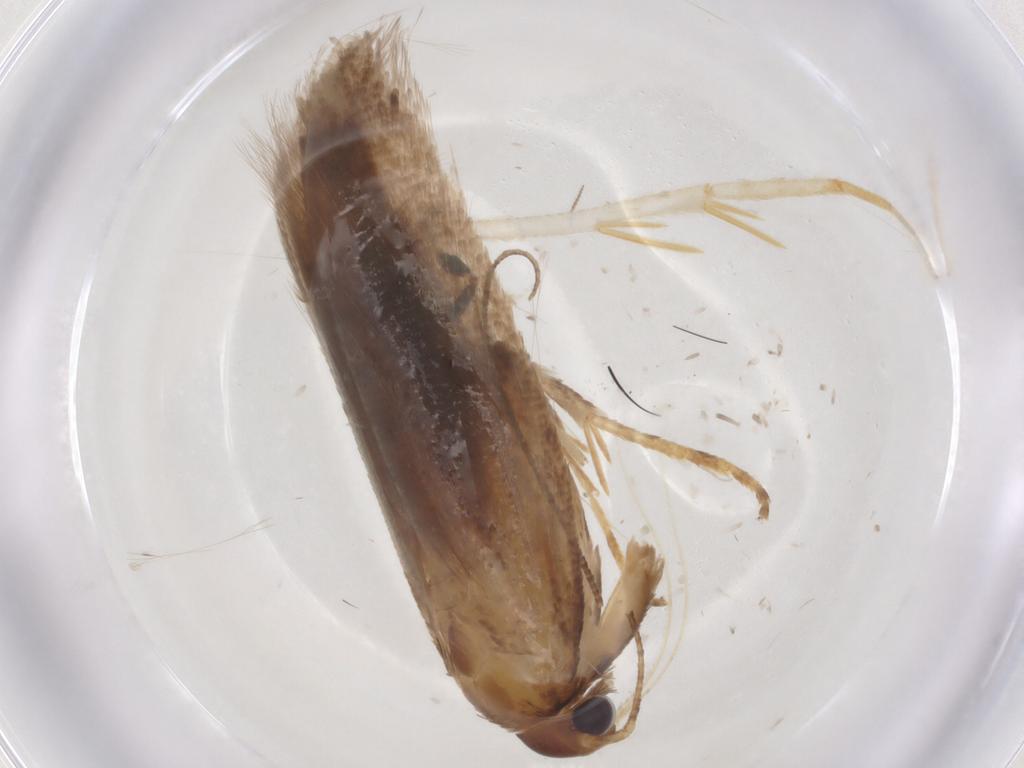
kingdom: Animalia
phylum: Arthropoda
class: Insecta
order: Lepidoptera
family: Gelechiidae
